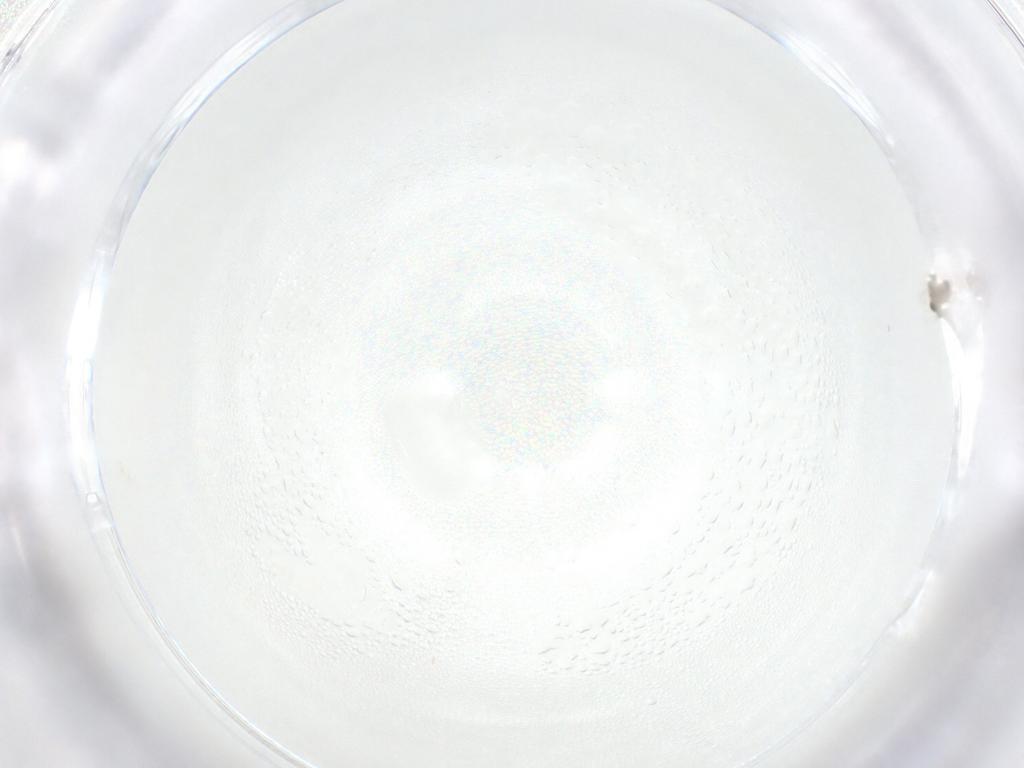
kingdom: Animalia
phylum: Arthropoda
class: Insecta
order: Diptera
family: Cecidomyiidae
